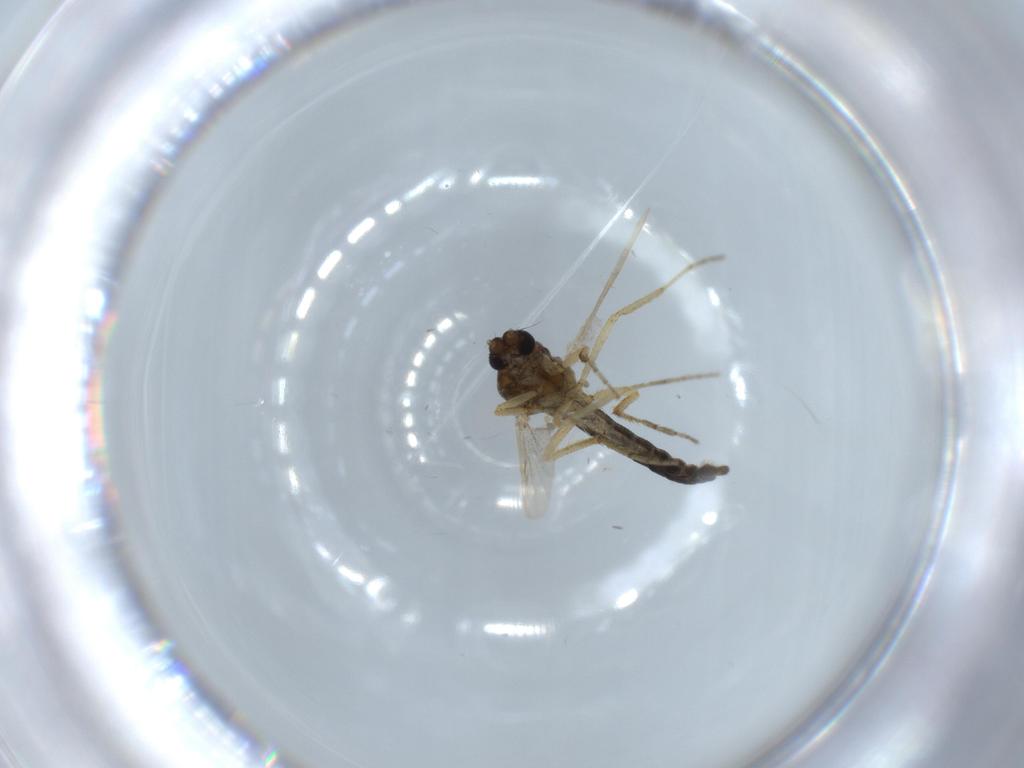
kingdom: Animalia
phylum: Arthropoda
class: Insecta
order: Diptera
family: Ceratopogonidae
